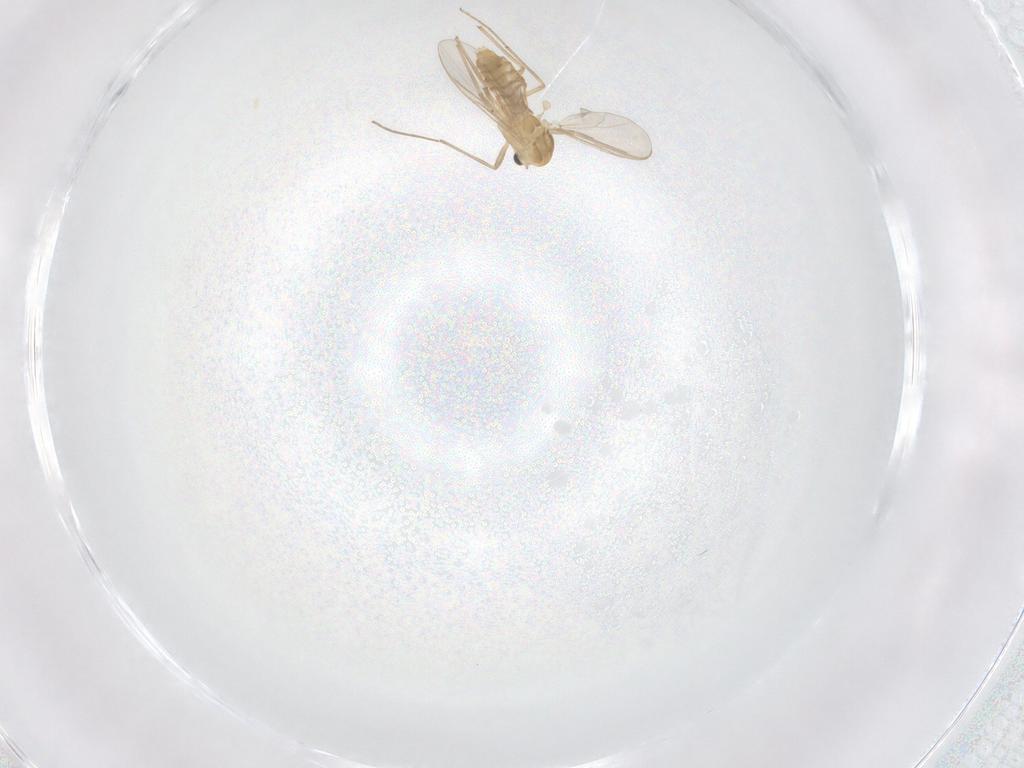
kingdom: Animalia
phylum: Arthropoda
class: Insecta
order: Diptera
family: Chironomidae
